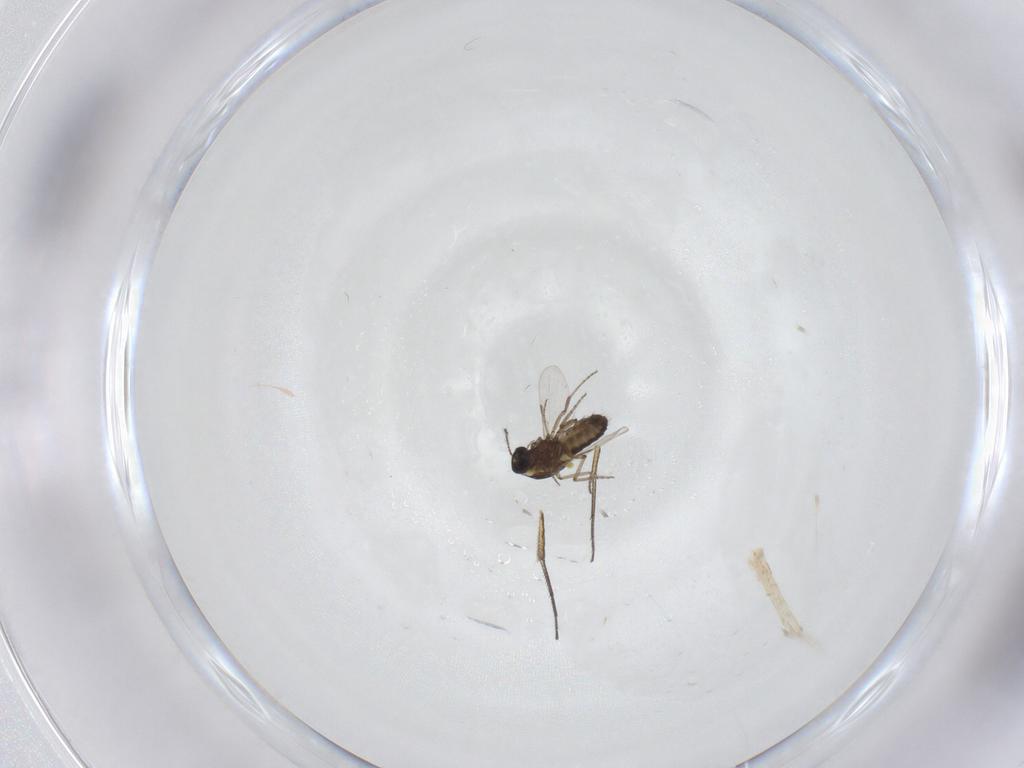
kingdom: Animalia
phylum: Arthropoda
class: Insecta
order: Diptera
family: Ceratopogonidae
